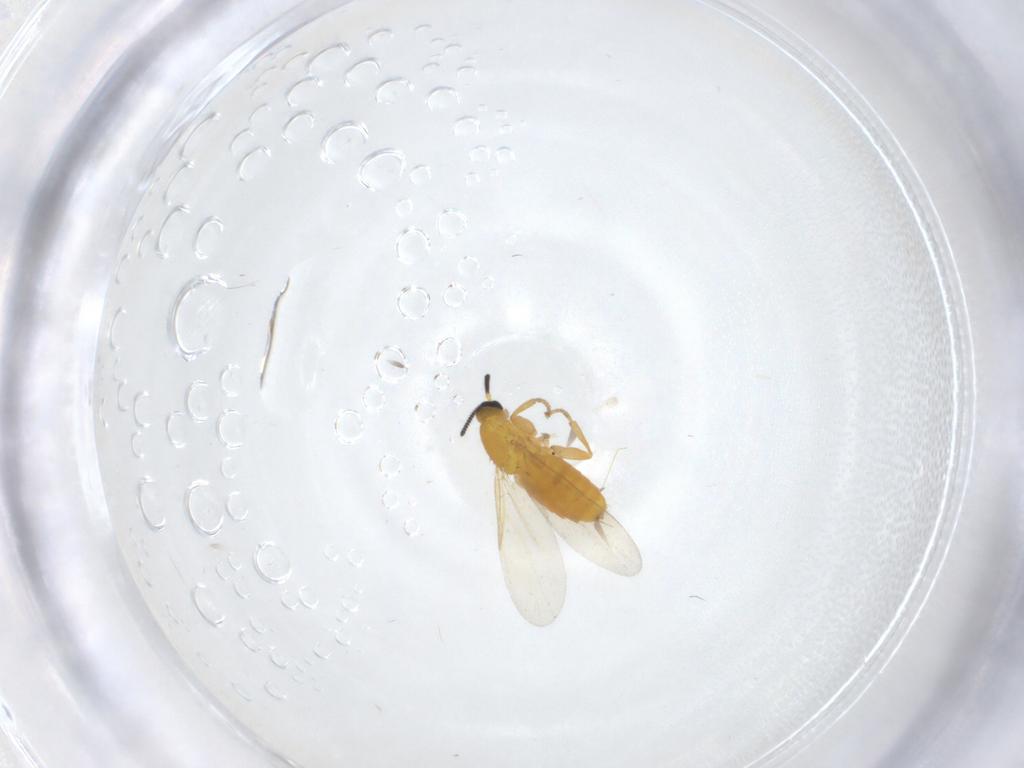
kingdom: Animalia
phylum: Arthropoda
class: Insecta
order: Diptera
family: Scatopsidae
